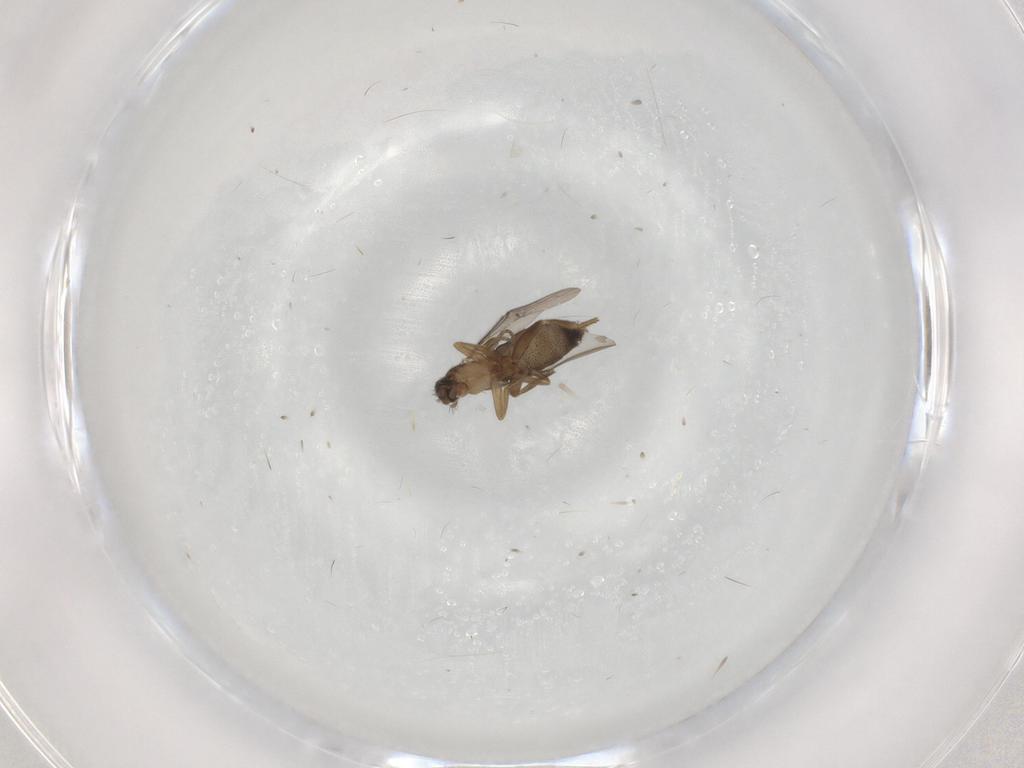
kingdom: Animalia
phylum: Arthropoda
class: Insecta
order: Diptera
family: Phoridae
